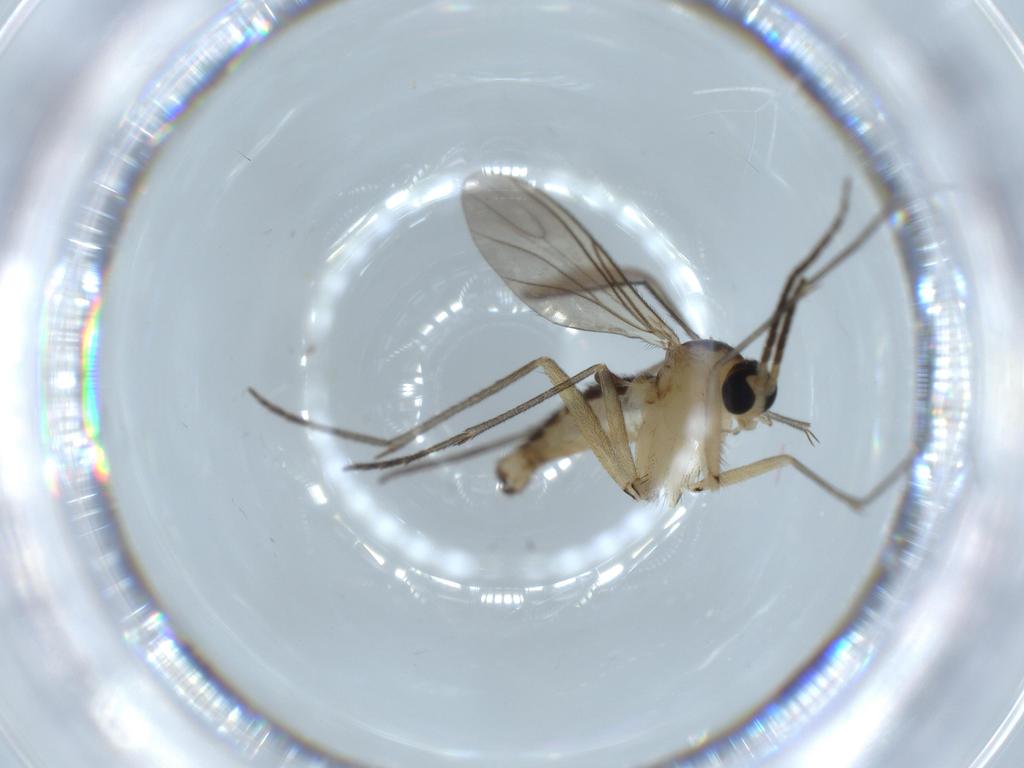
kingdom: Animalia
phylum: Arthropoda
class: Insecta
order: Diptera
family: Sciaridae
